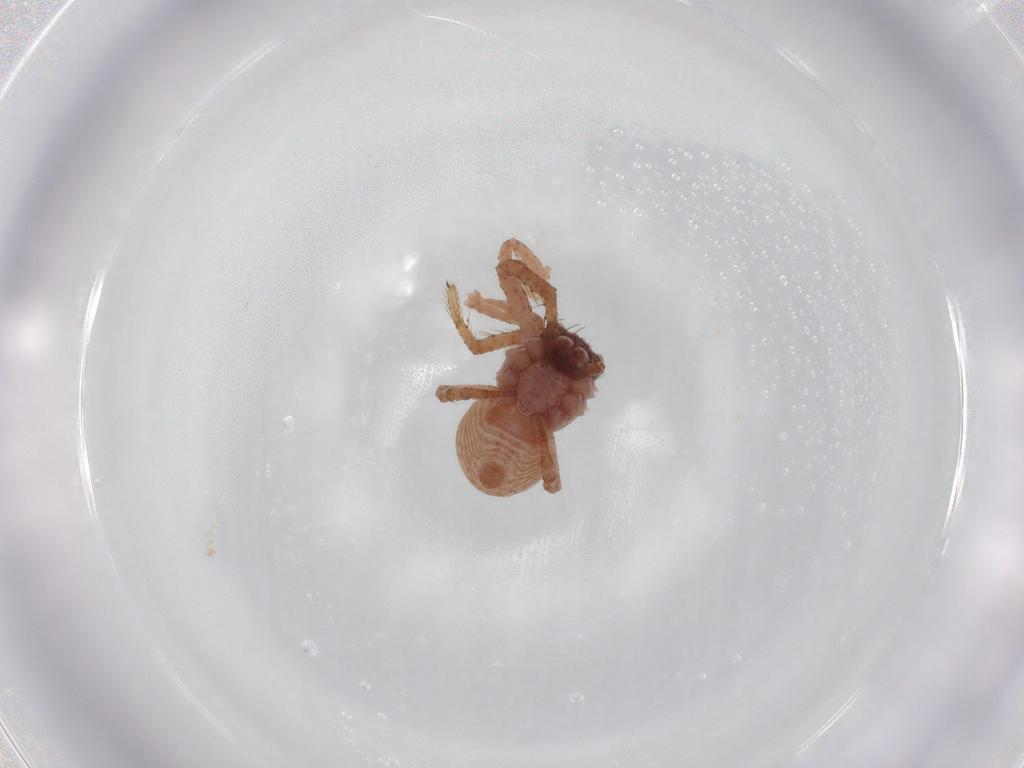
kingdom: Animalia
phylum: Arthropoda
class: Arachnida
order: Araneae
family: Thomisidae
